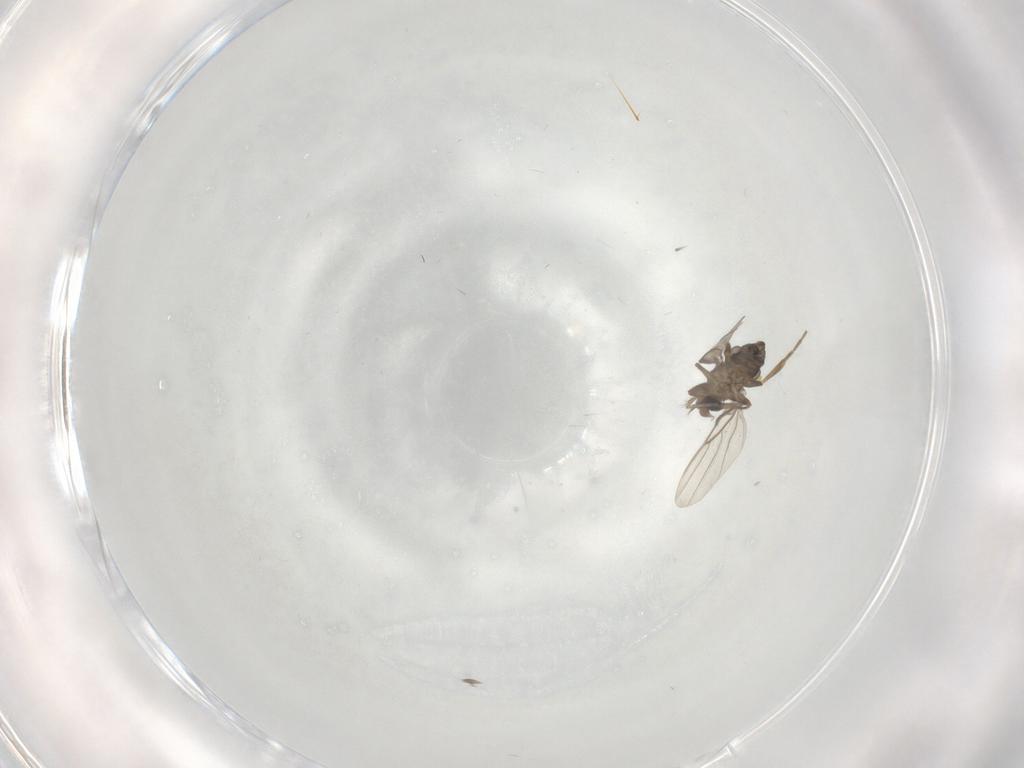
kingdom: Animalia
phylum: Arthropoda
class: Insecta
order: Diptera
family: Phoridae
